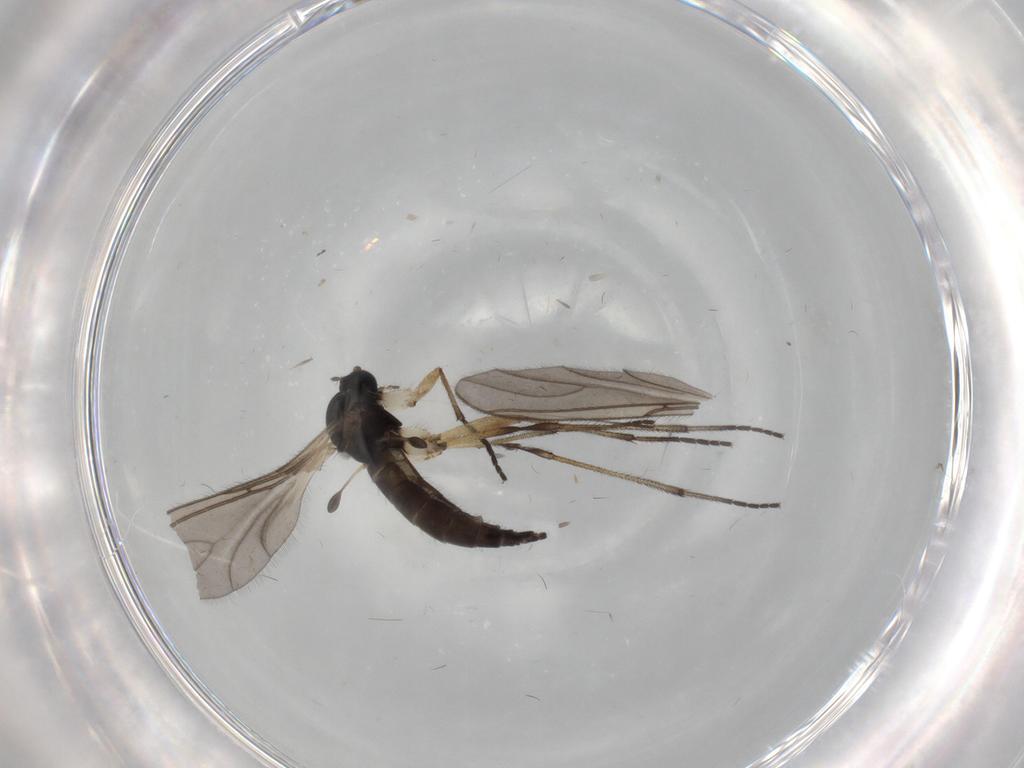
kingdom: Animalia
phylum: Arthropoda
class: Insecta
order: Diptera
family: Sciaridae
